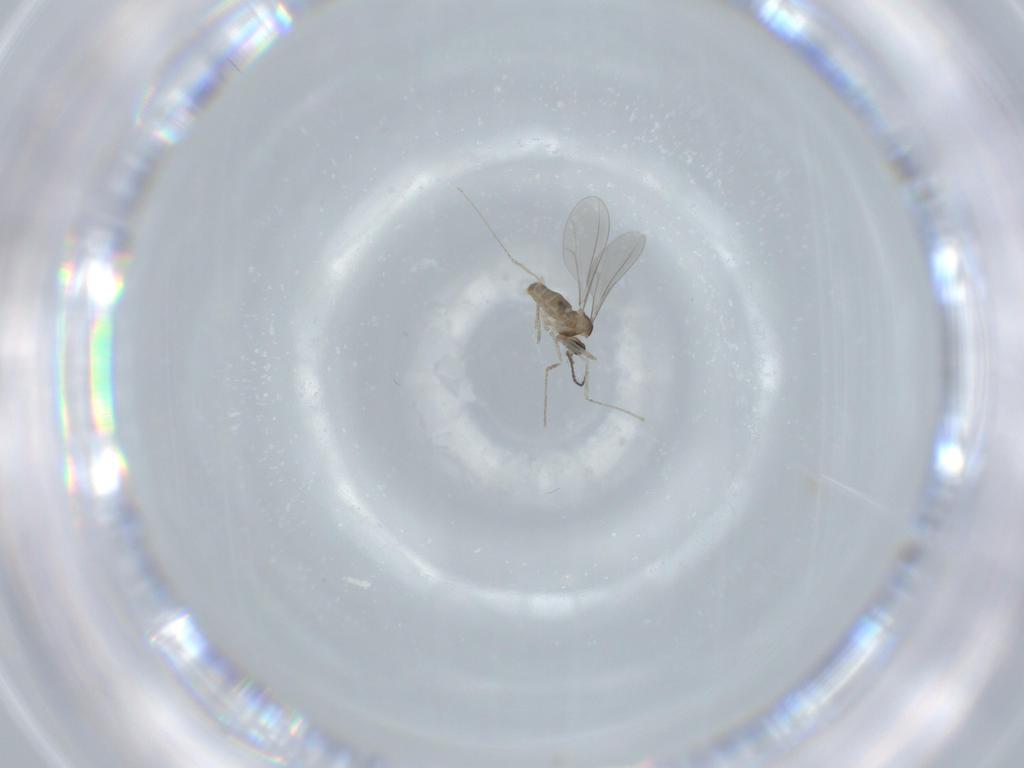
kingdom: Animalia
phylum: Arthropoda
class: Insecta
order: Diptera
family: Cecidomyiidae
